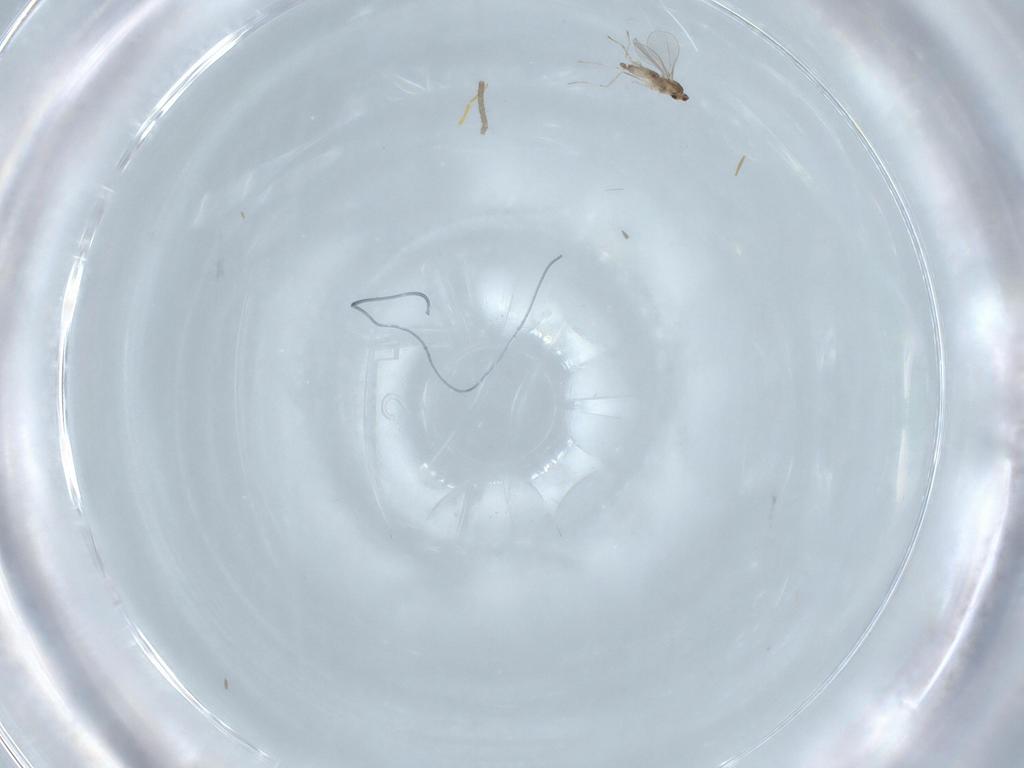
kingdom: Animalia
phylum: Arthropoda
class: Insecta
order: Diptera
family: Cecidomyiidae
